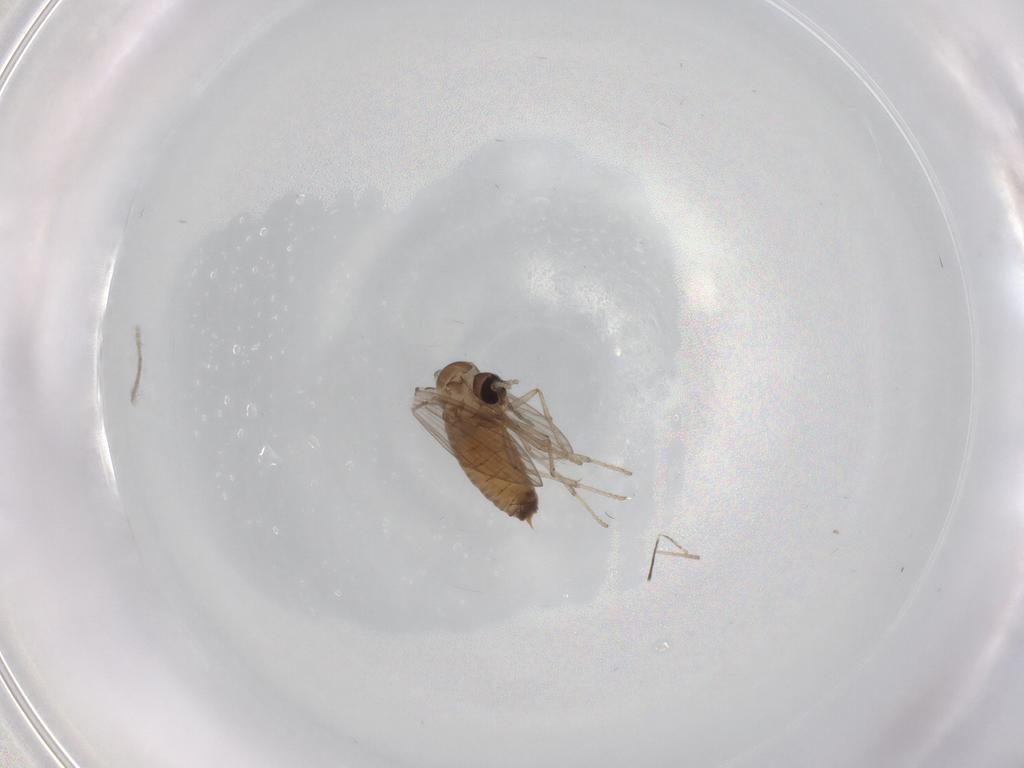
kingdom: Animalia
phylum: Arthropoda
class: Insecta
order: Diptera
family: Psychodidae
